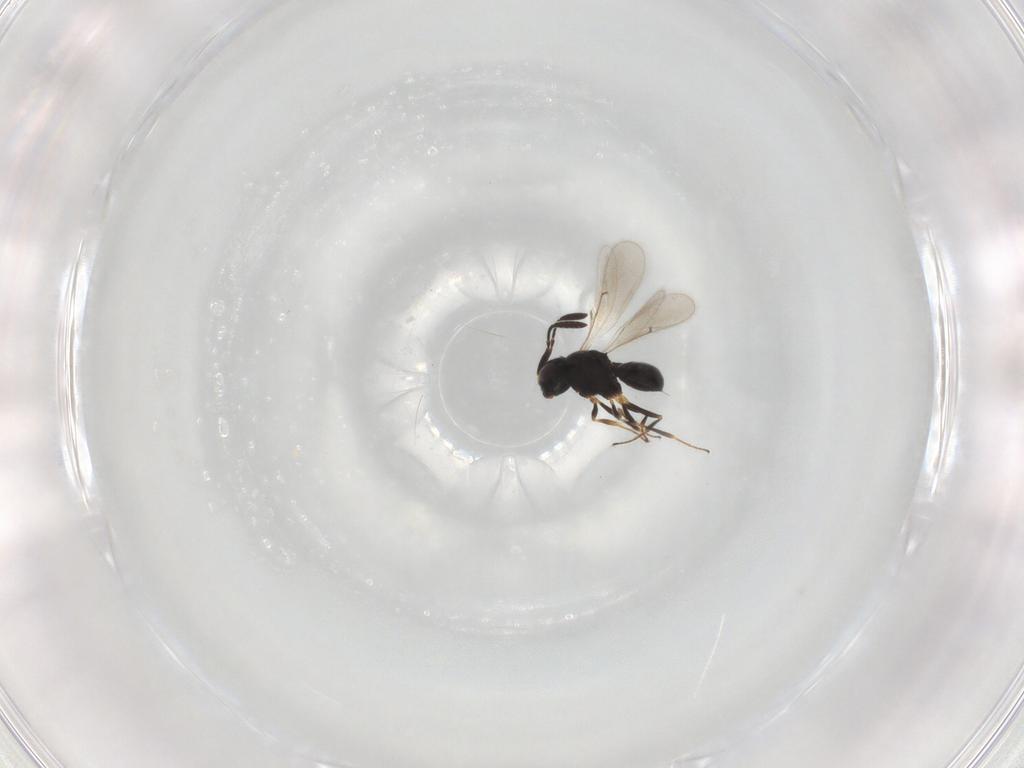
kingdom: Animalia
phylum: Arthropoda
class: Insecta
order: Hymenoptera
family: Scelionidae
